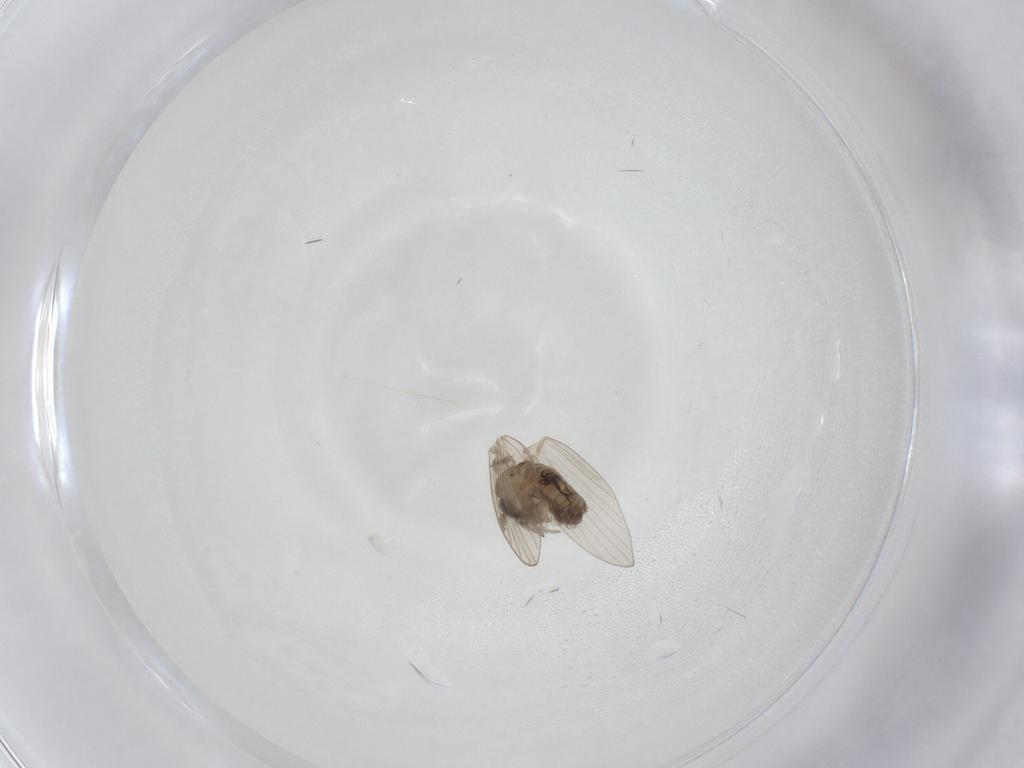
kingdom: Animalia
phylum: Arthropoda
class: Insecta
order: Diptera
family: Psychodidae
